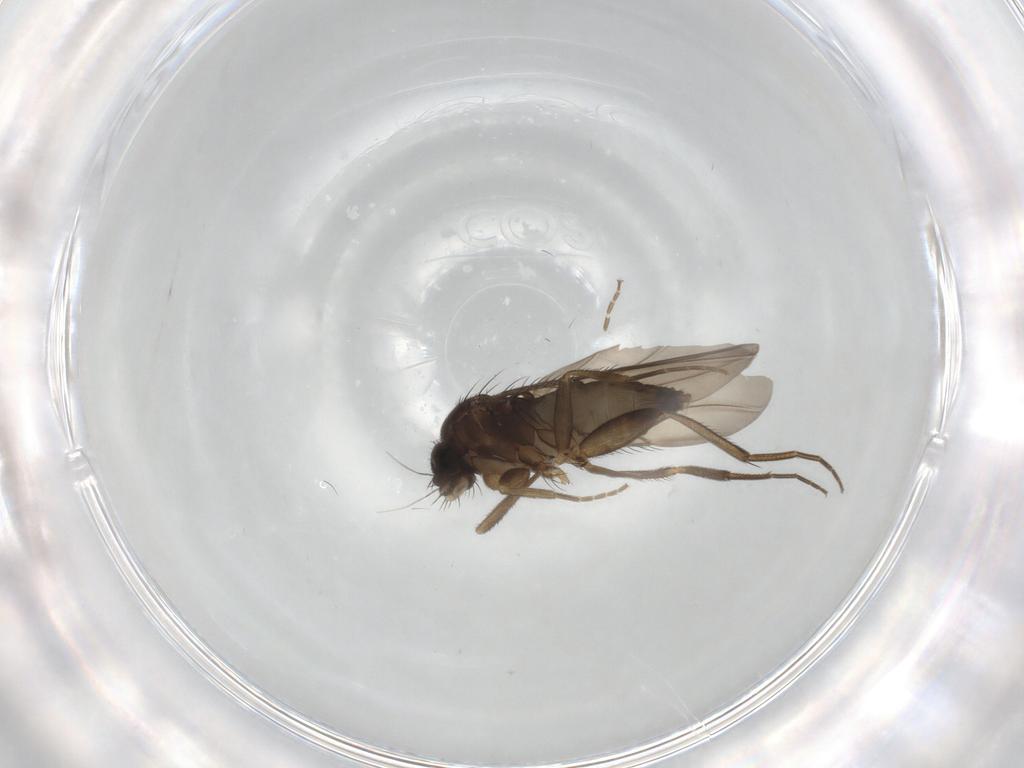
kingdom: Animalia
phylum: Arthropoda
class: Insecta
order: Diptera
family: Phoridae
